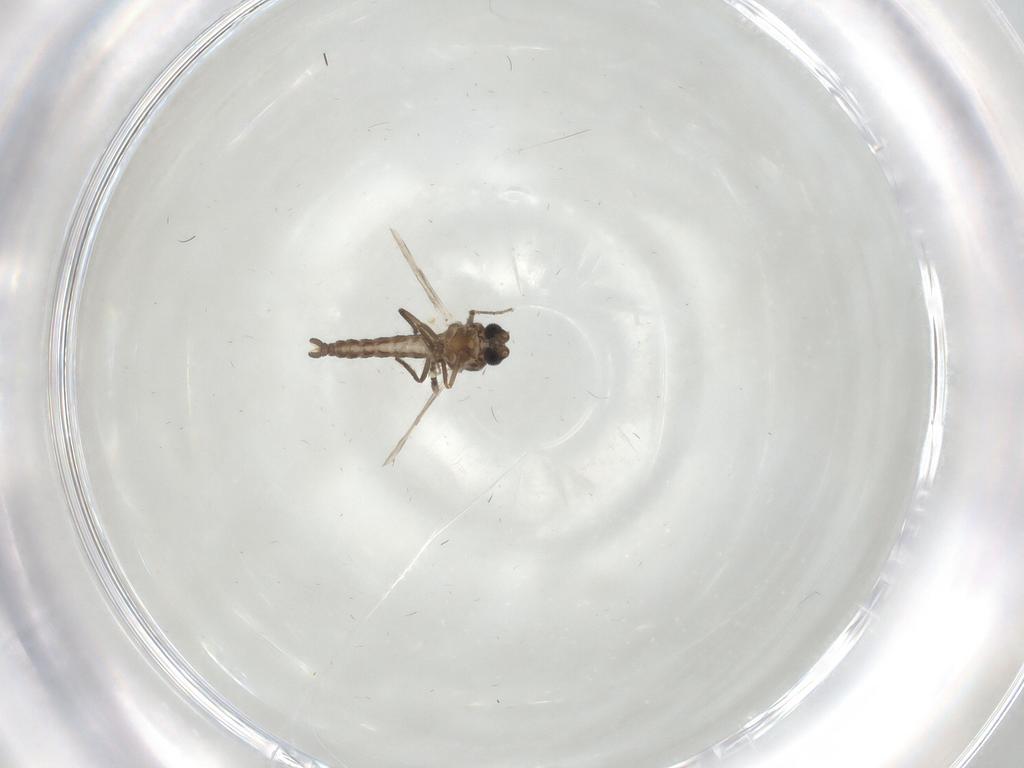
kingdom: Animalia
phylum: Arthropoda
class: Insecta
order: Diptera
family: Ceratopogonidae
